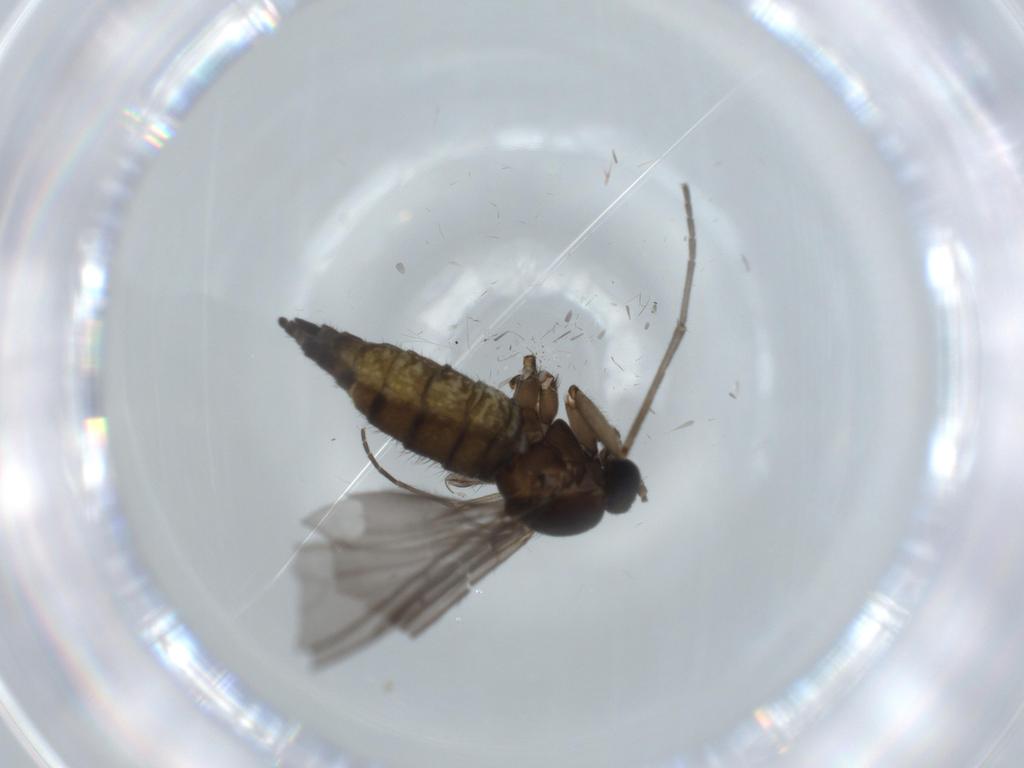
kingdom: Animalia
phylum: Arthropoda
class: Insecta
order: Diptera
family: Sciaridae
